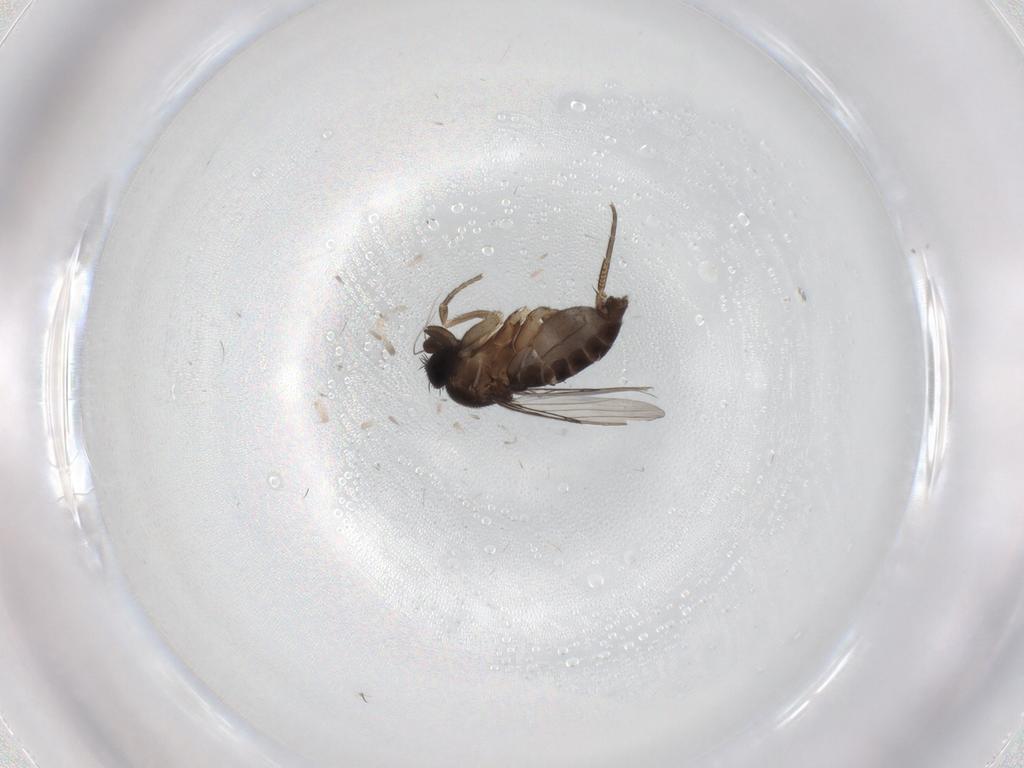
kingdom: Animalia
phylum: Arthropoda
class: Insecta
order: Diptera
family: Phoridae
